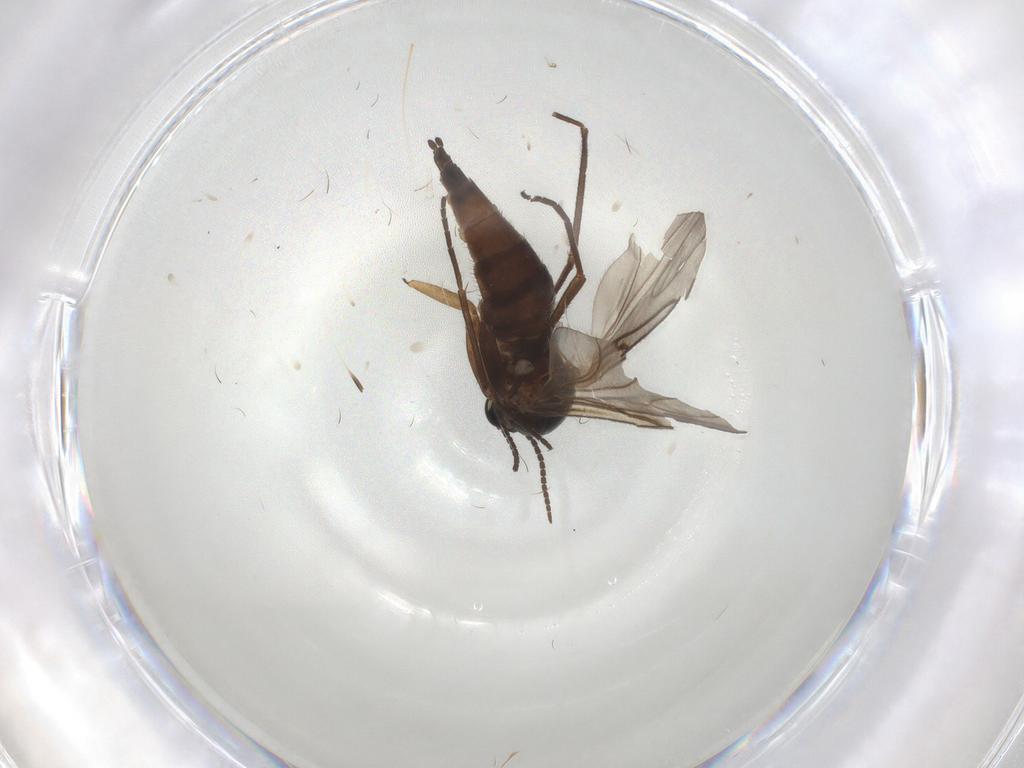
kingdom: Animalia
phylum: Arthropoda
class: Insecta
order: Diptera
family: Sciaridae
